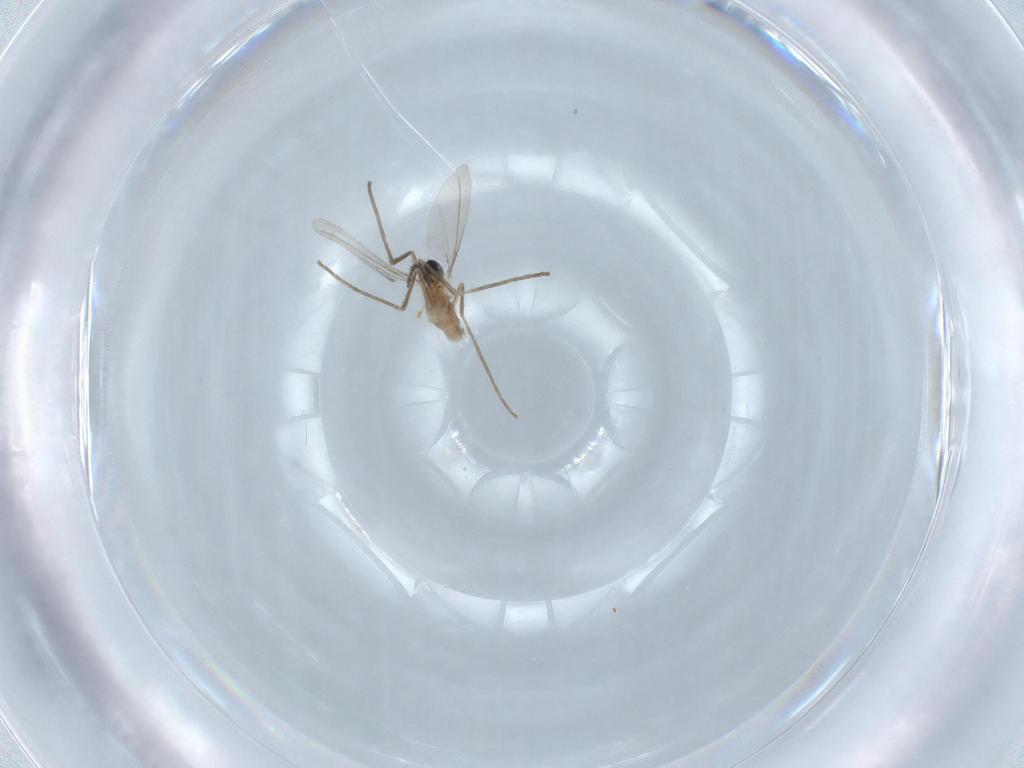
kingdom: Animalia
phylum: Arthropoda
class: Insecta
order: Diptera
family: Cecidomyiidae
